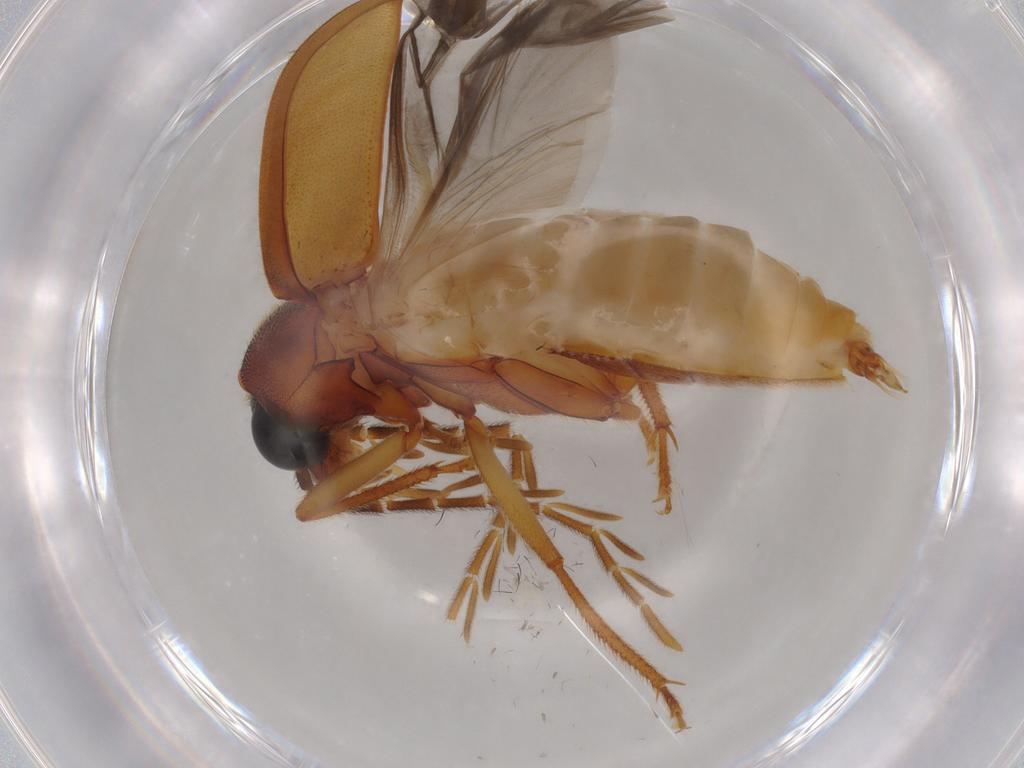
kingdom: Animalia
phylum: Arthropoda
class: Insecta
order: Coleoptera
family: Ptilodactylidae
